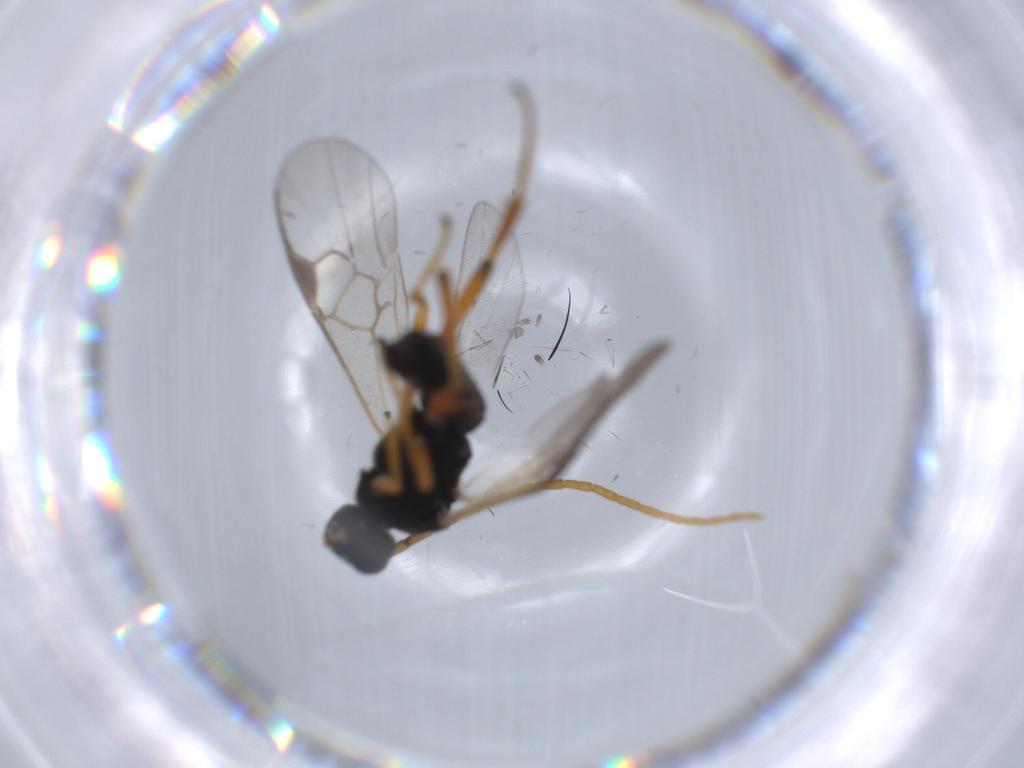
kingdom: Animalia
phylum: Arthropoda
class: Insecta
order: Hymenoptera
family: Braconidae
